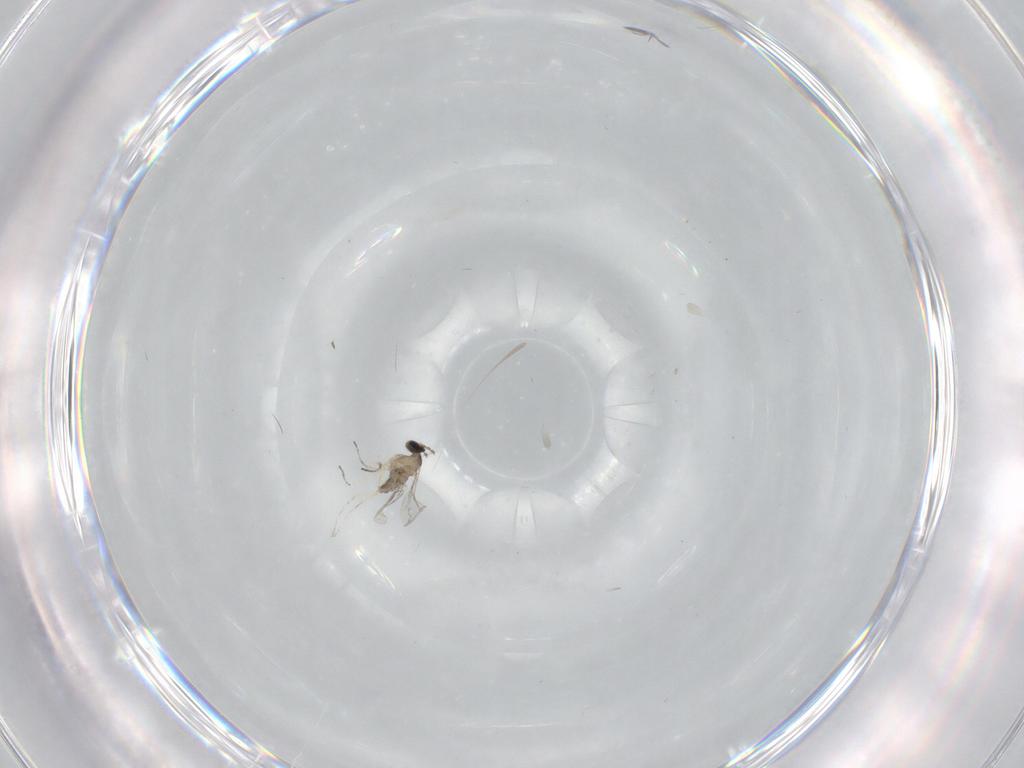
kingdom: Animalia
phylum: Arthropoda
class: Insecta
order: Diptera
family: Cecidomyiidae
